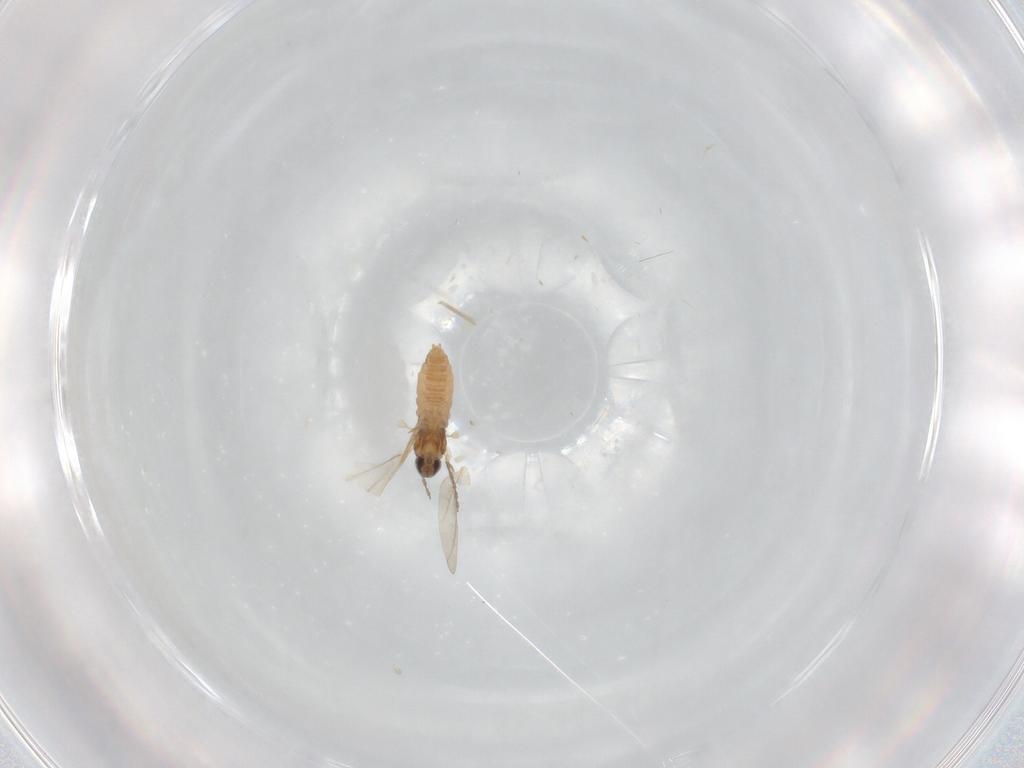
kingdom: Animalia
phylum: Arthropoda
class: Insecta
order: Diptera
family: Cecidomyiidae
